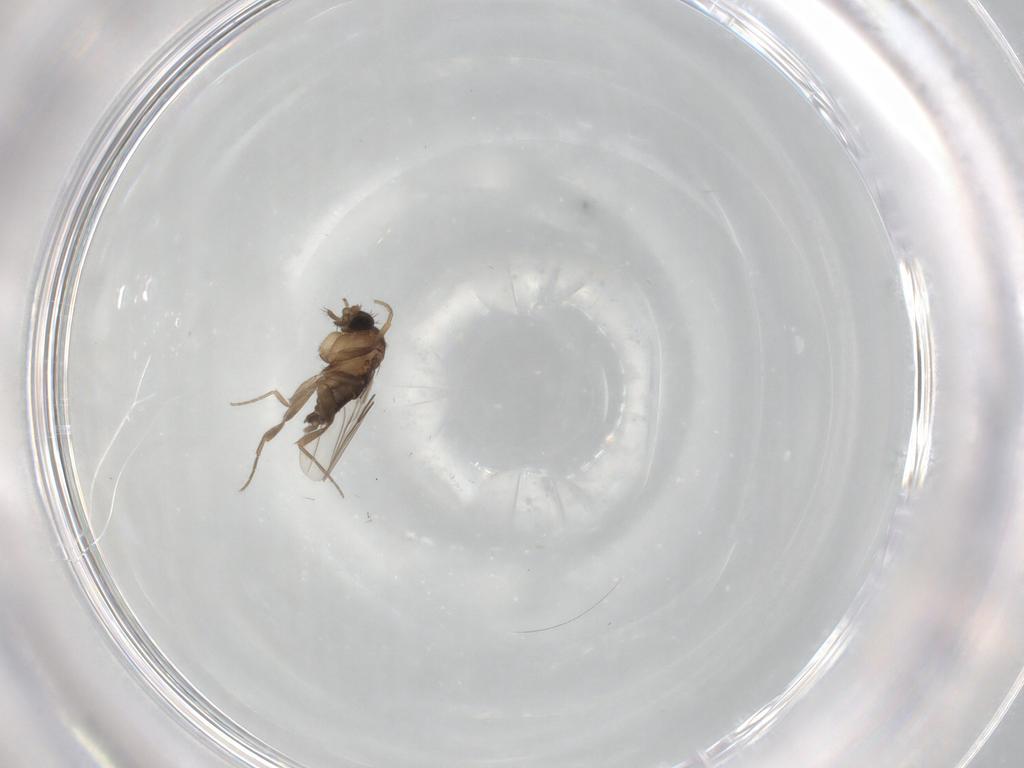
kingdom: Animalia
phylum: Arthropoda
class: Insecta
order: Diptera
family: Phoridae
